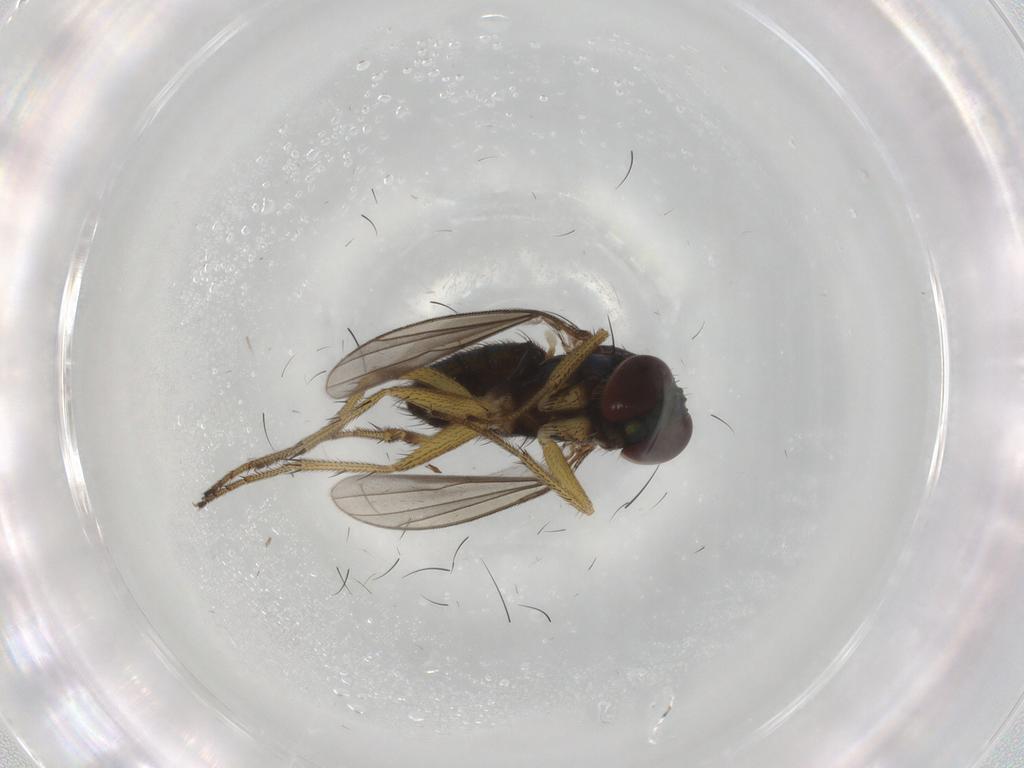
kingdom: Animalia
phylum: Arthropoda
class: Insecta
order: Diptera
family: Dolichopodidae
